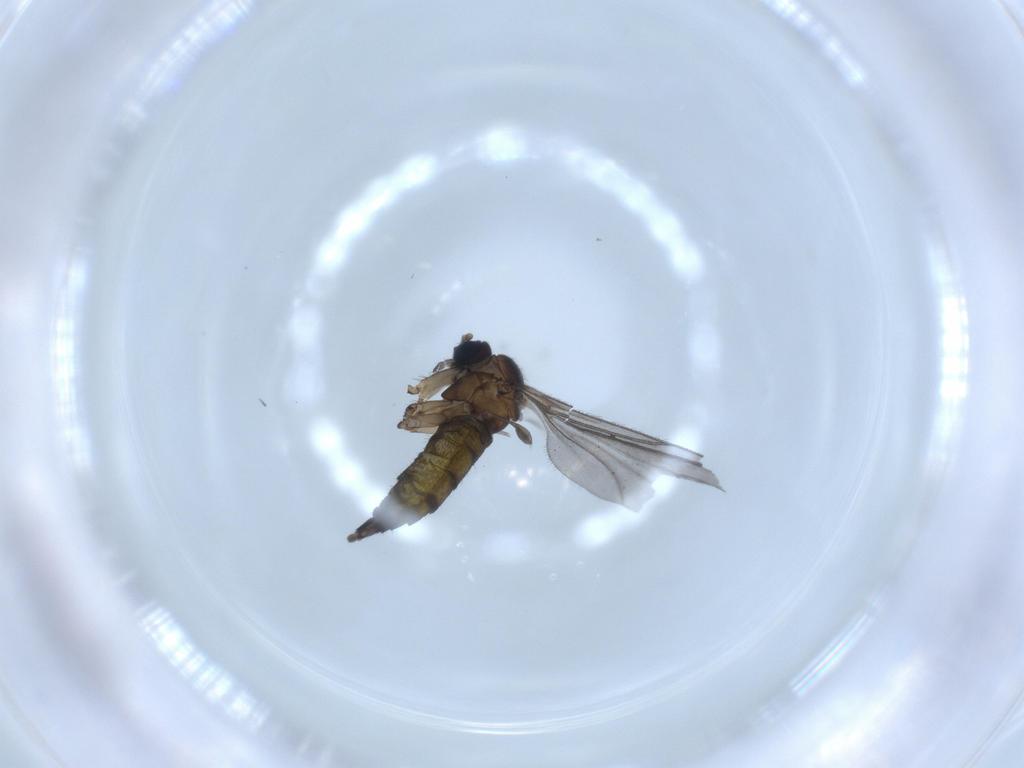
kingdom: Animalia
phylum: Arthropoda
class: Insecta
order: Diptera
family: Sciaridae
